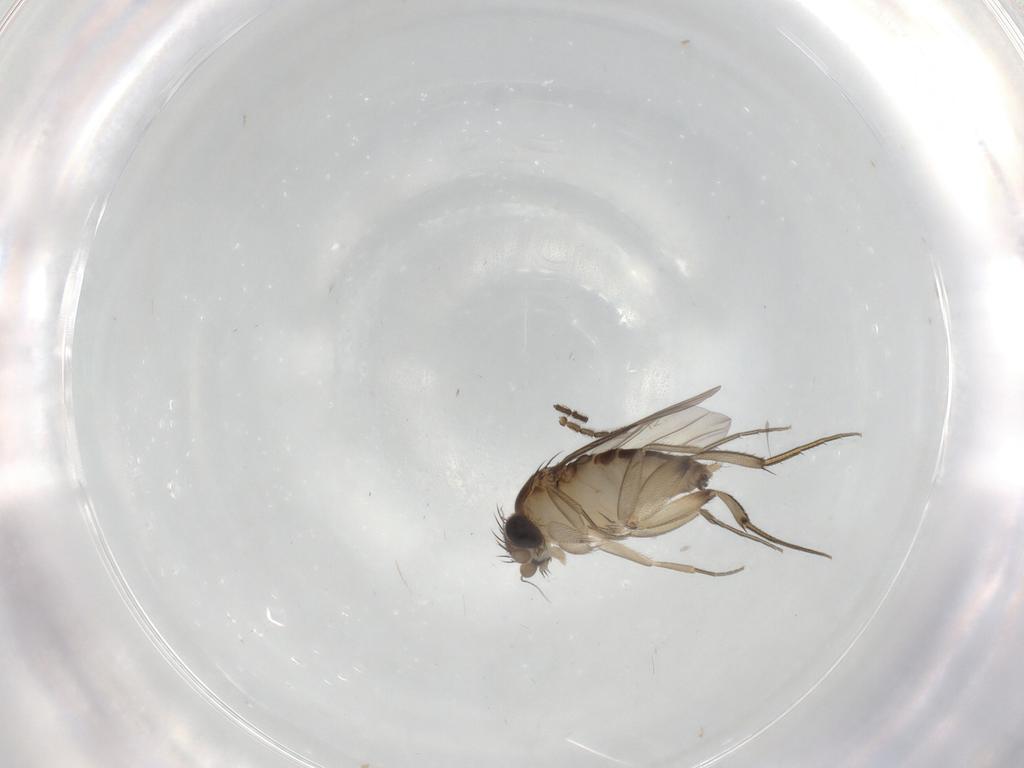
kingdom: Animalia
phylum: Arthropoda
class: Insecta
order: Diptera
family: Phoridae
